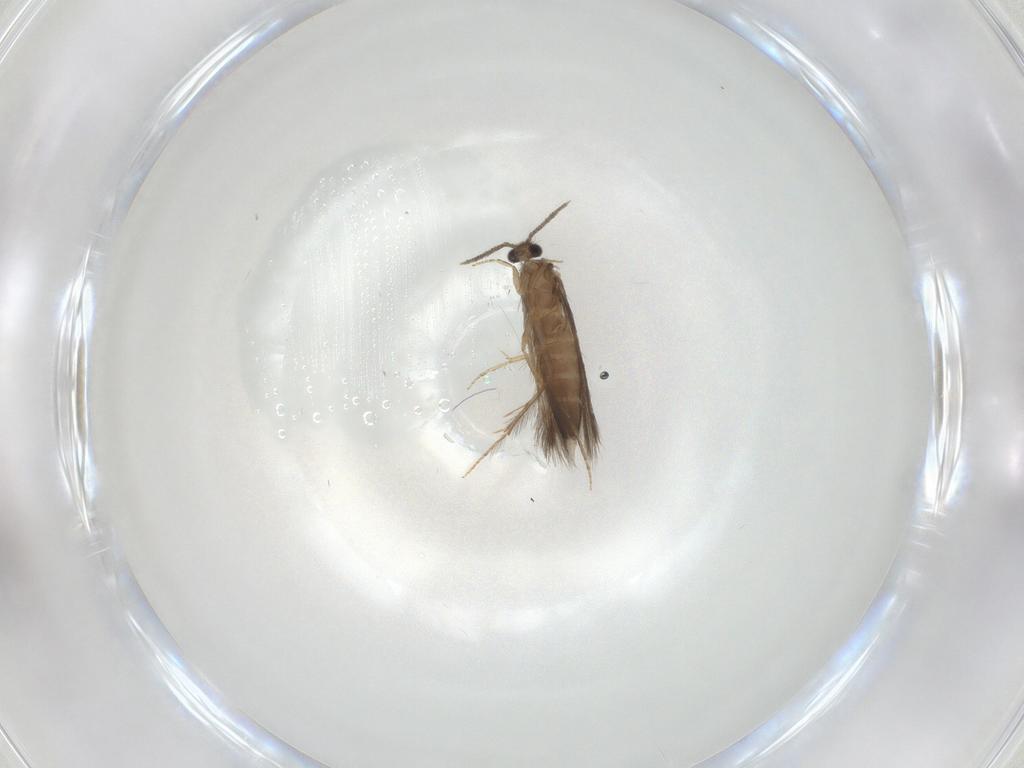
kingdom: Animalia
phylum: Arthropoda
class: Insecta
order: Trichoptera
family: Hydroptilidae
